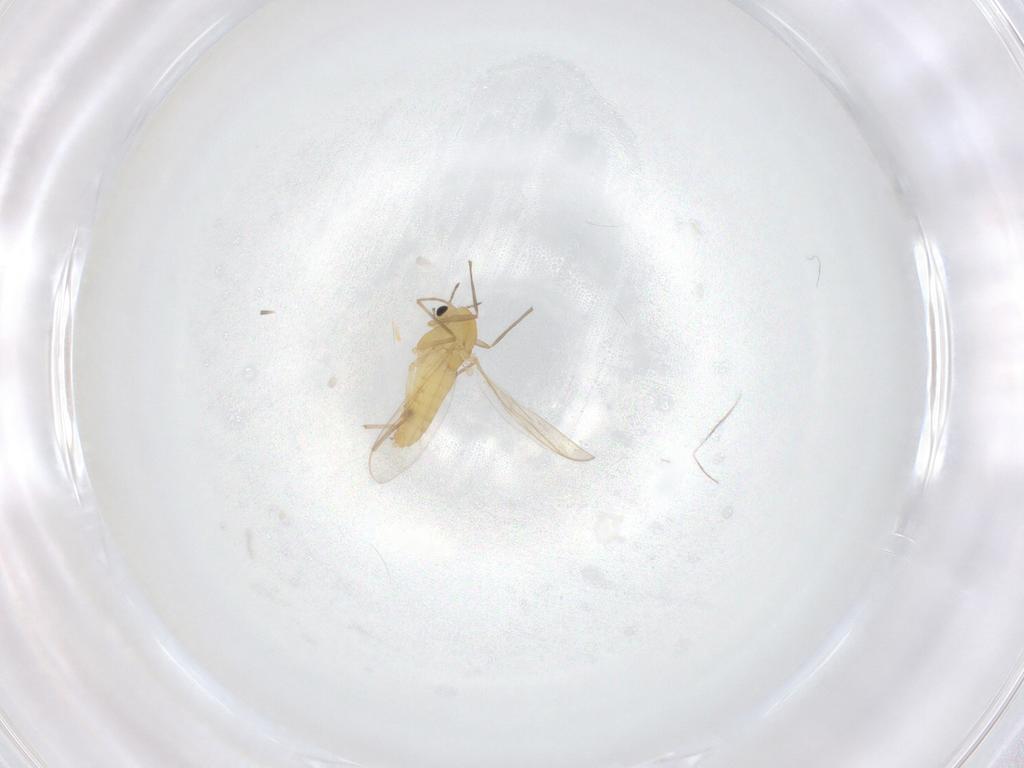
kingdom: Animalia
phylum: Arthropoda
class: Insecta
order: Diptera
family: Chironomidae
